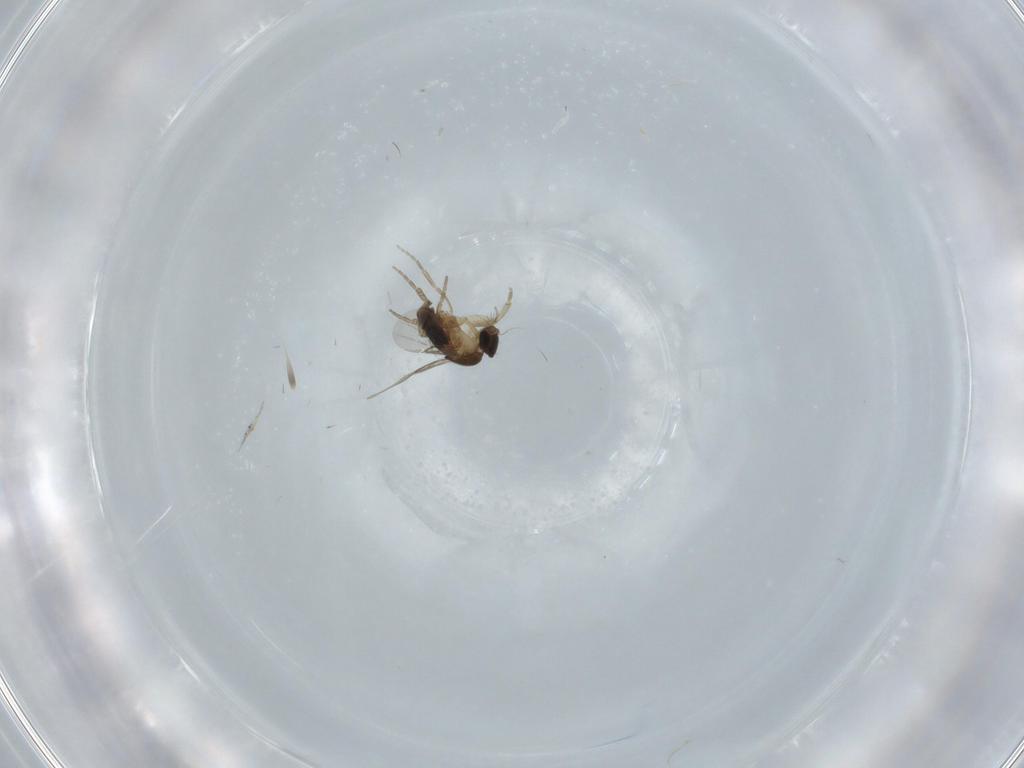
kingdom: Animalia
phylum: Arthropoda
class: Insecta
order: Diptera
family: Phoridae
